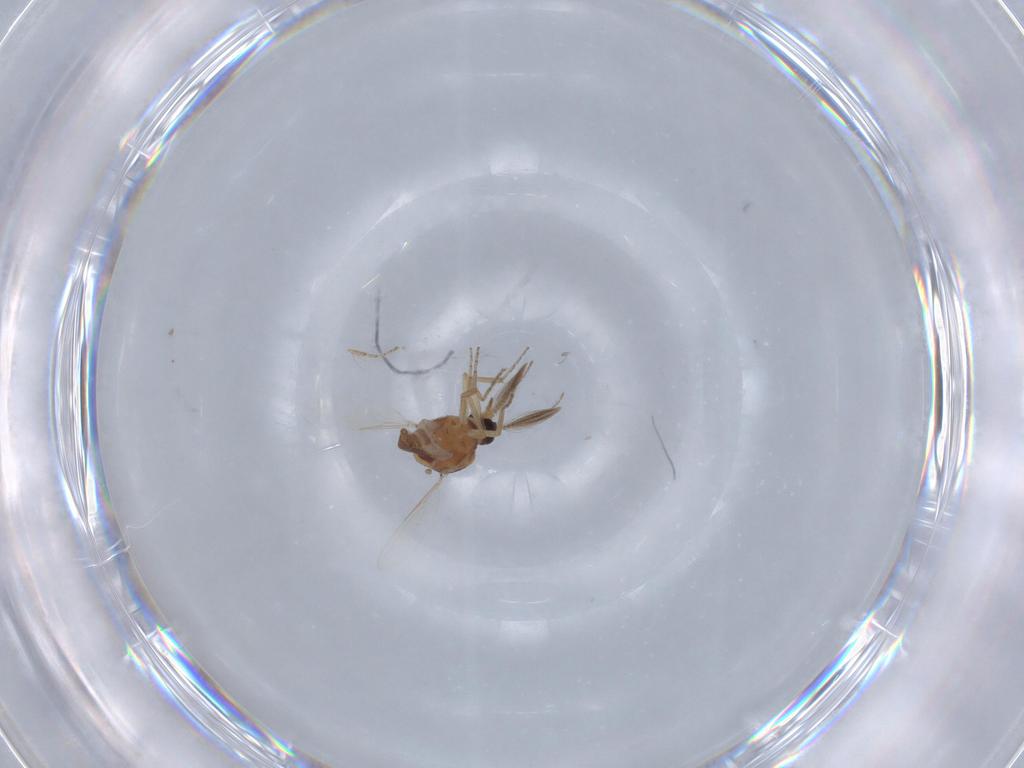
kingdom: Animalia
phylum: Arthropoda
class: Insecta
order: Diptera
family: Ceratopogonidae
